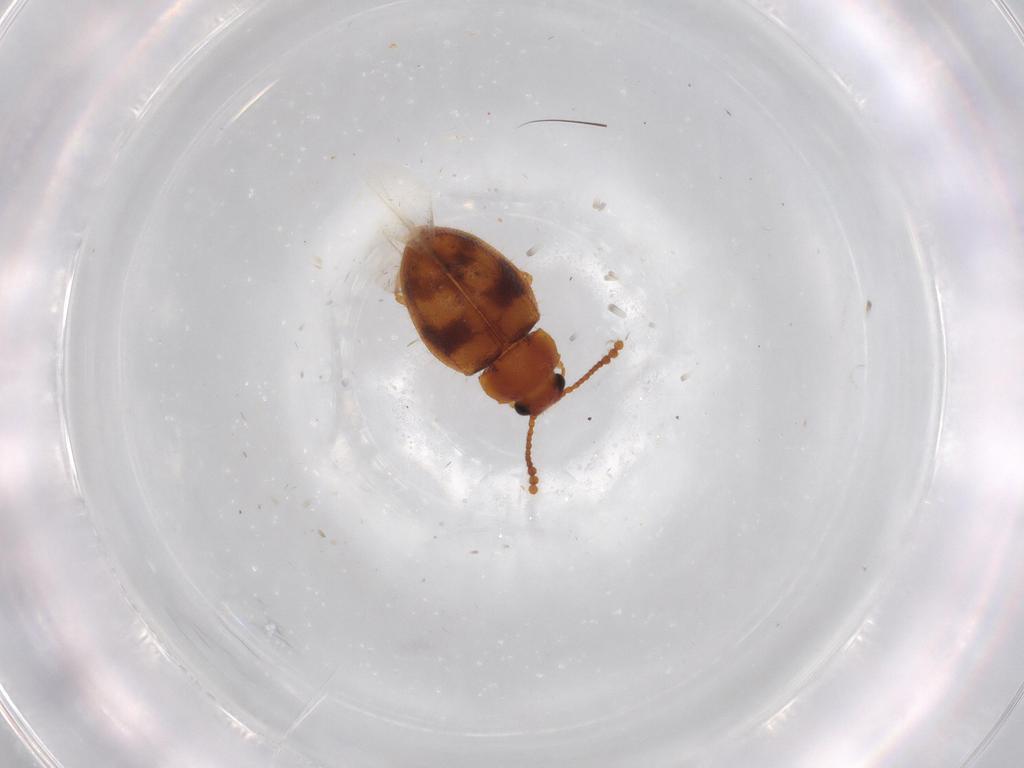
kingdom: Animalia
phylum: Arthropoda
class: Insecta
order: Coleoptera
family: Erotylidae
